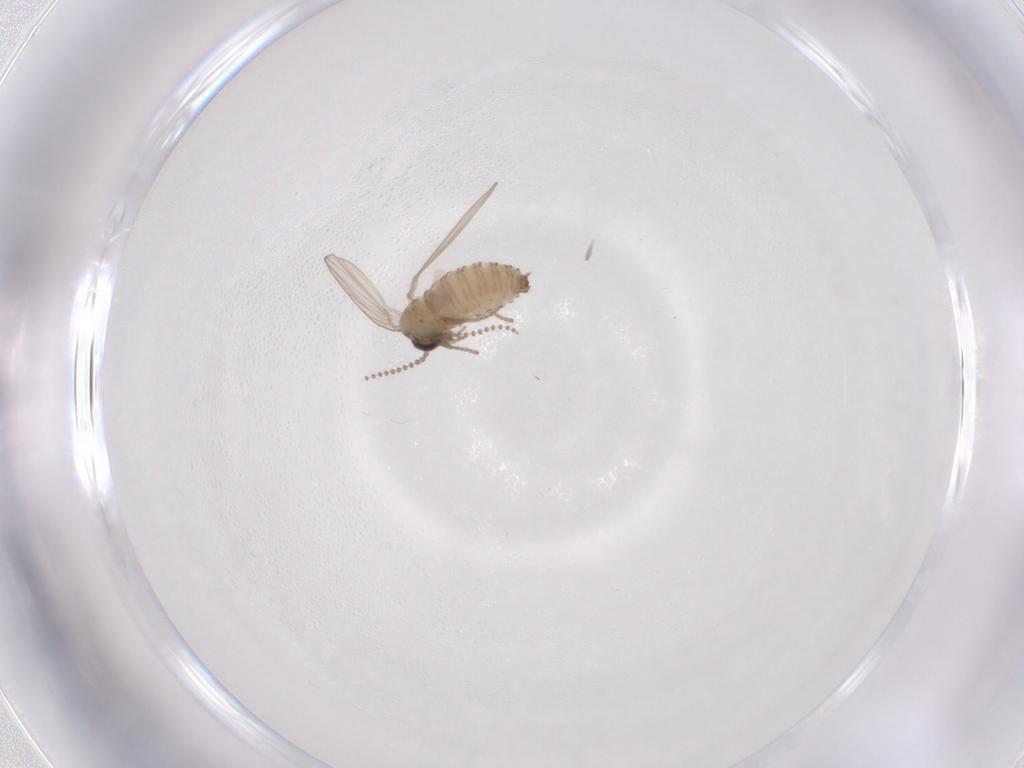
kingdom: Animalia
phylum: Arthropoda
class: Insecta
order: Diptera
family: Psychodidae
